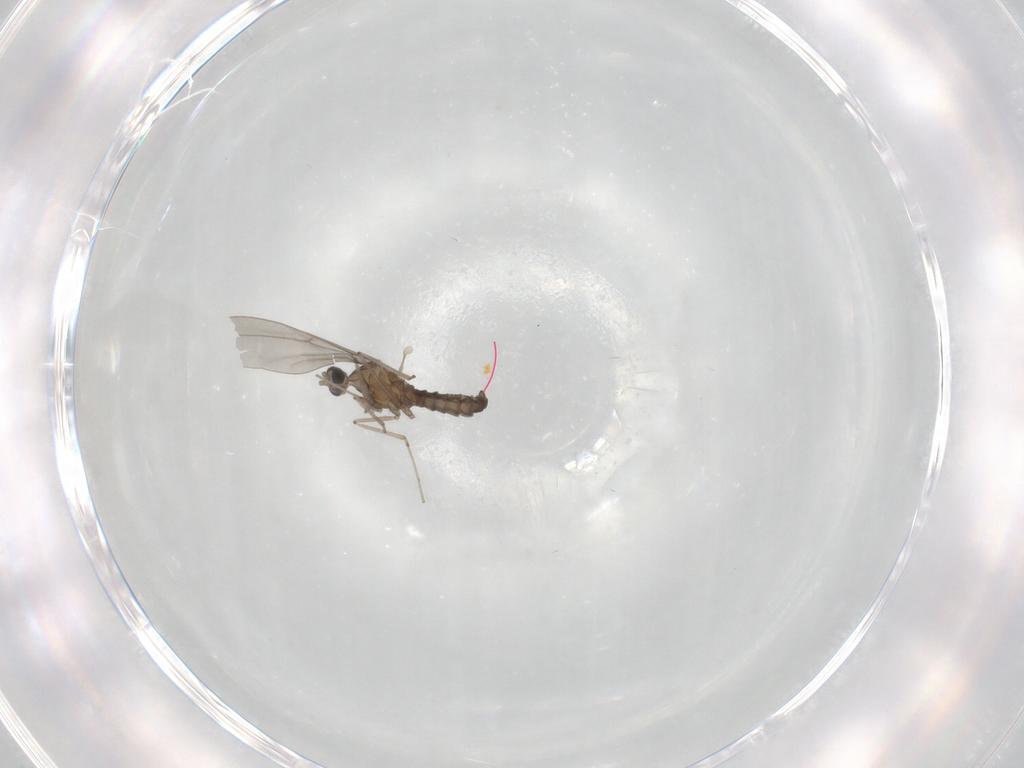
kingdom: Animalia
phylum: Arthropoda
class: Insecta
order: Diptera
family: Cecidomyiidae
